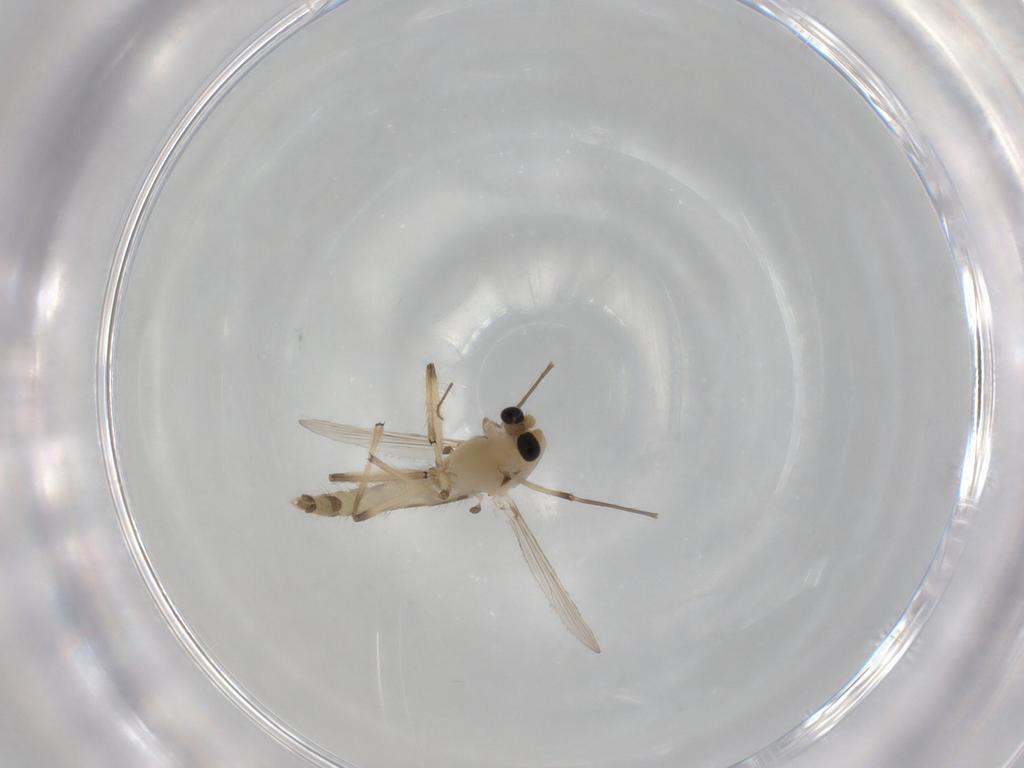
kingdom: Animalia
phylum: Arthropoda
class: Insecta
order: Diptera
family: Chironomidae
